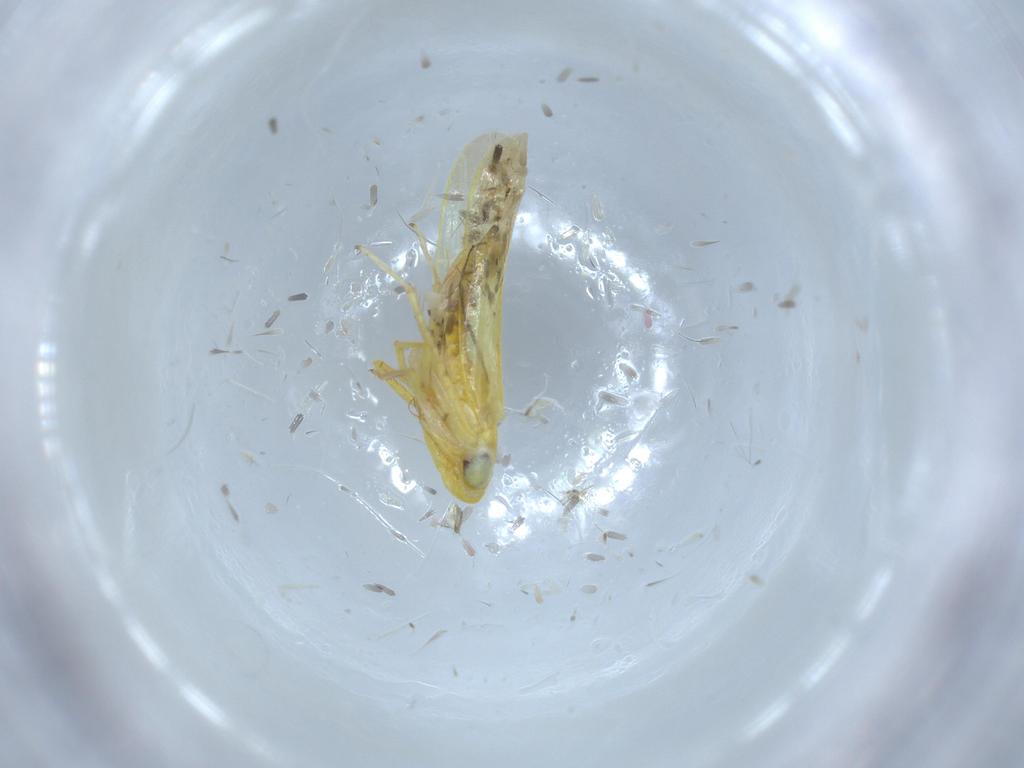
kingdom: Animalia
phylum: Arthropoda
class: Insecta
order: Hemiptera
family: Cicadellidae
